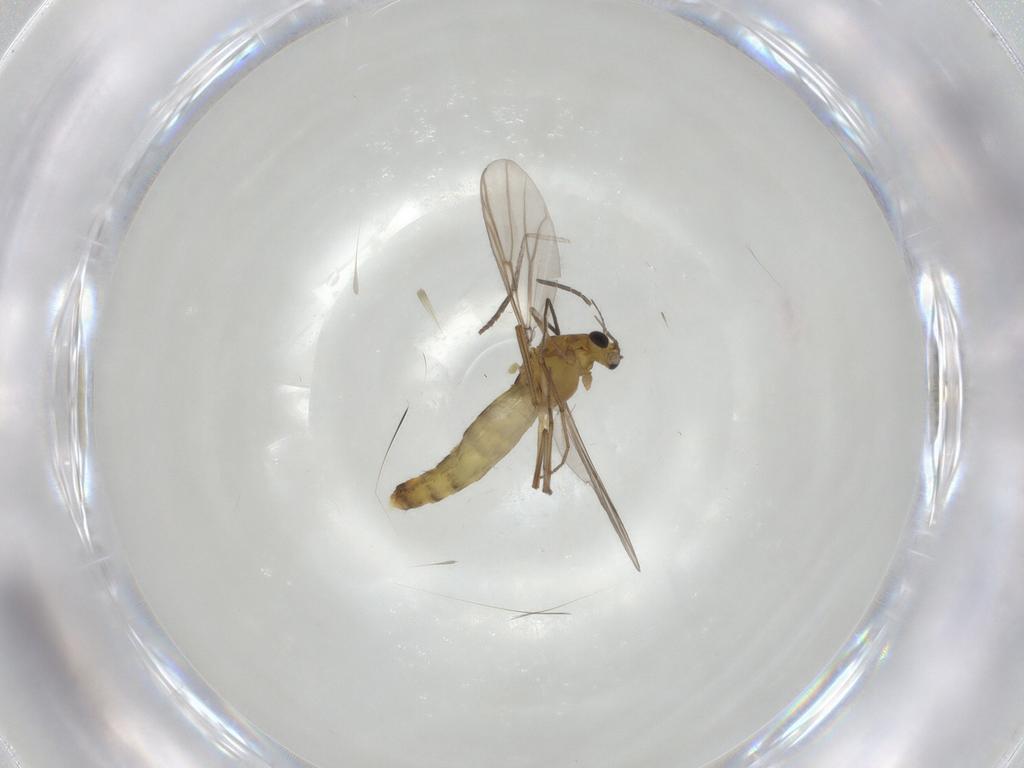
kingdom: Animalia
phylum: Arthropoda
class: Insecta
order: Diptera
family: Chironomidae
